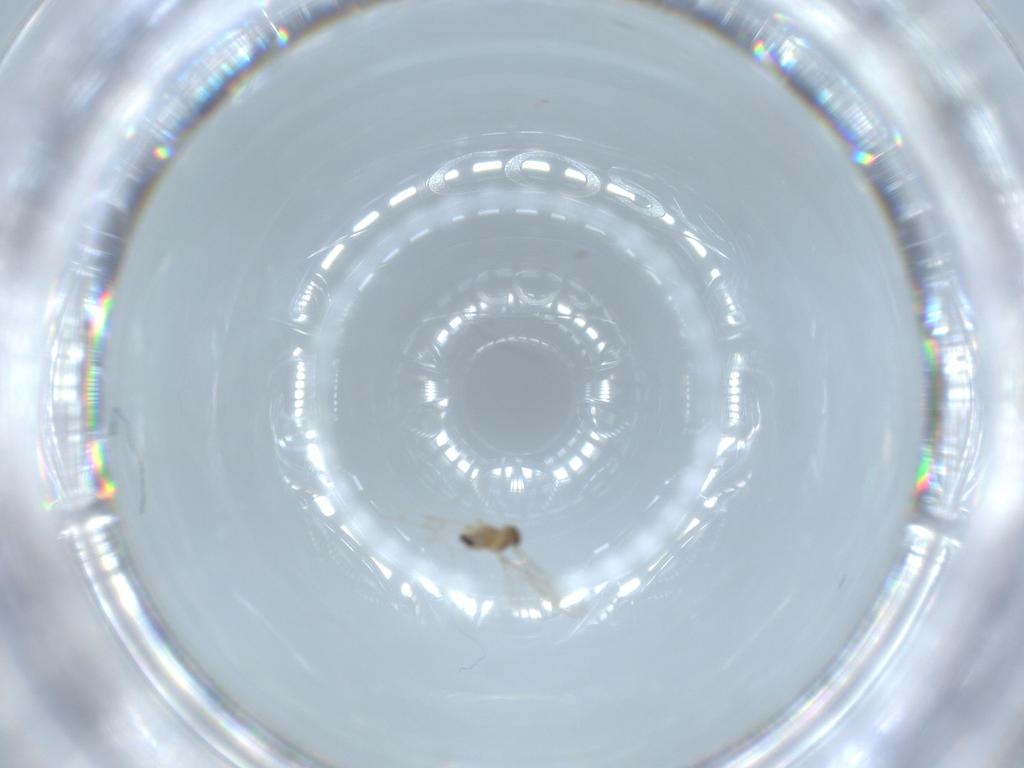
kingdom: Animalia
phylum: Arthropoda
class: Insecta
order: Diptera
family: Cecidomyiidae
